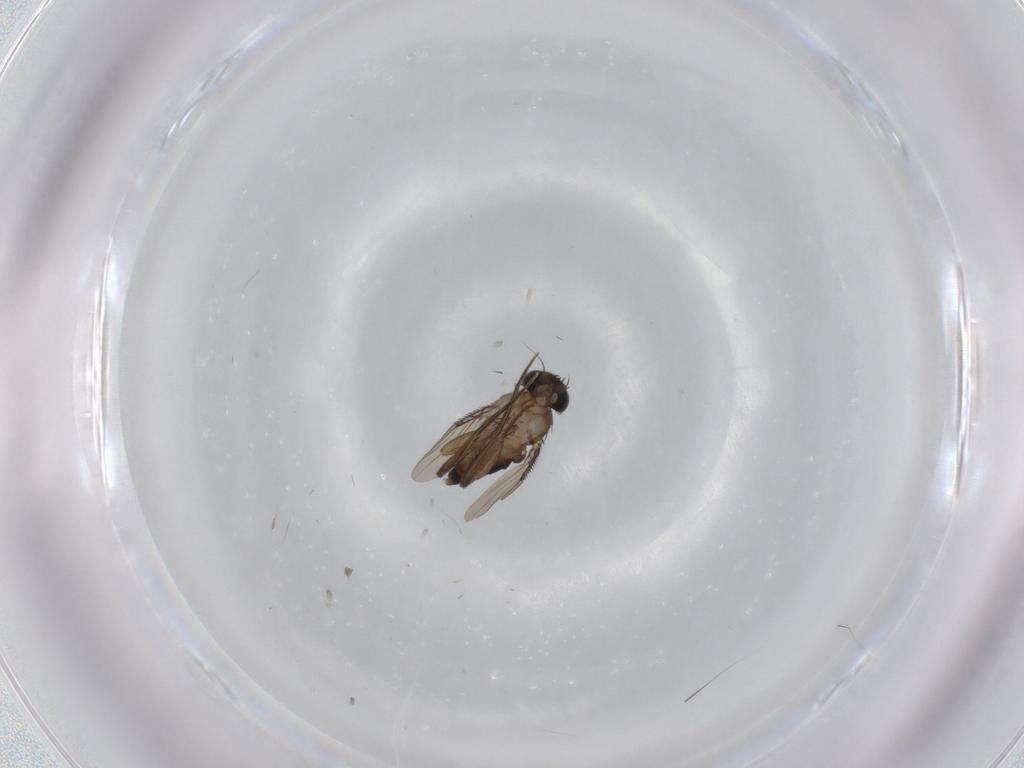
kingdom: Animalia
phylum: Arthropoda
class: Insecta
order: Diptera
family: Phoridae
